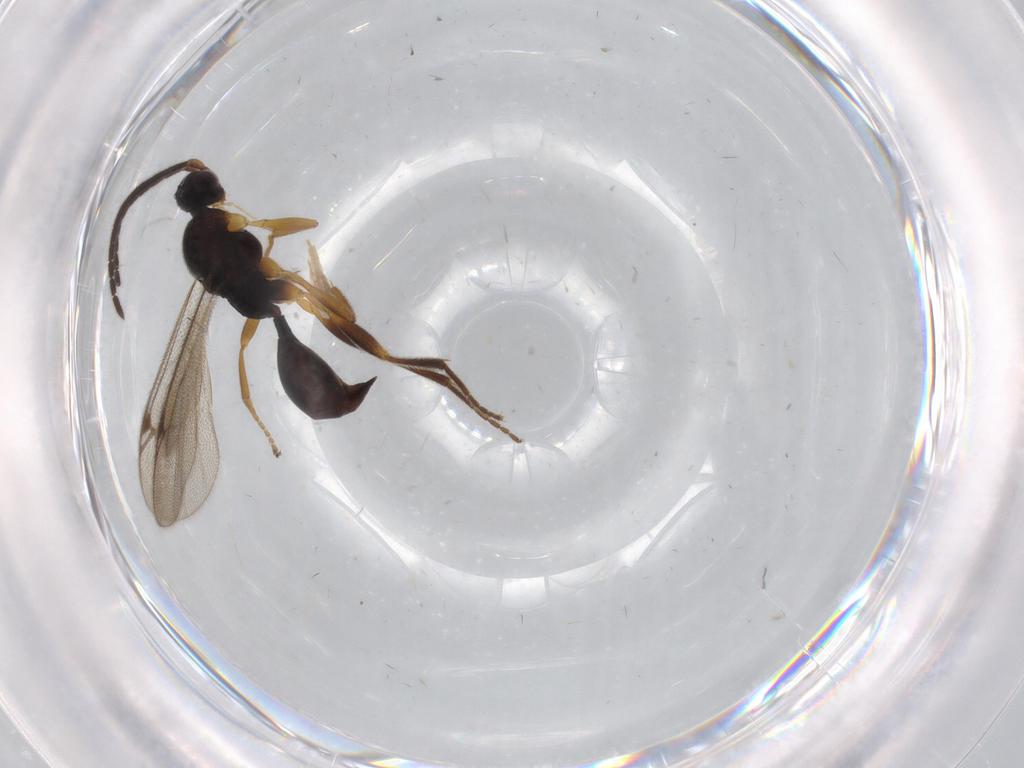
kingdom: Animalia
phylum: Arthropoda
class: Insecta
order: Hymenoptera
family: Proctotrupidae
